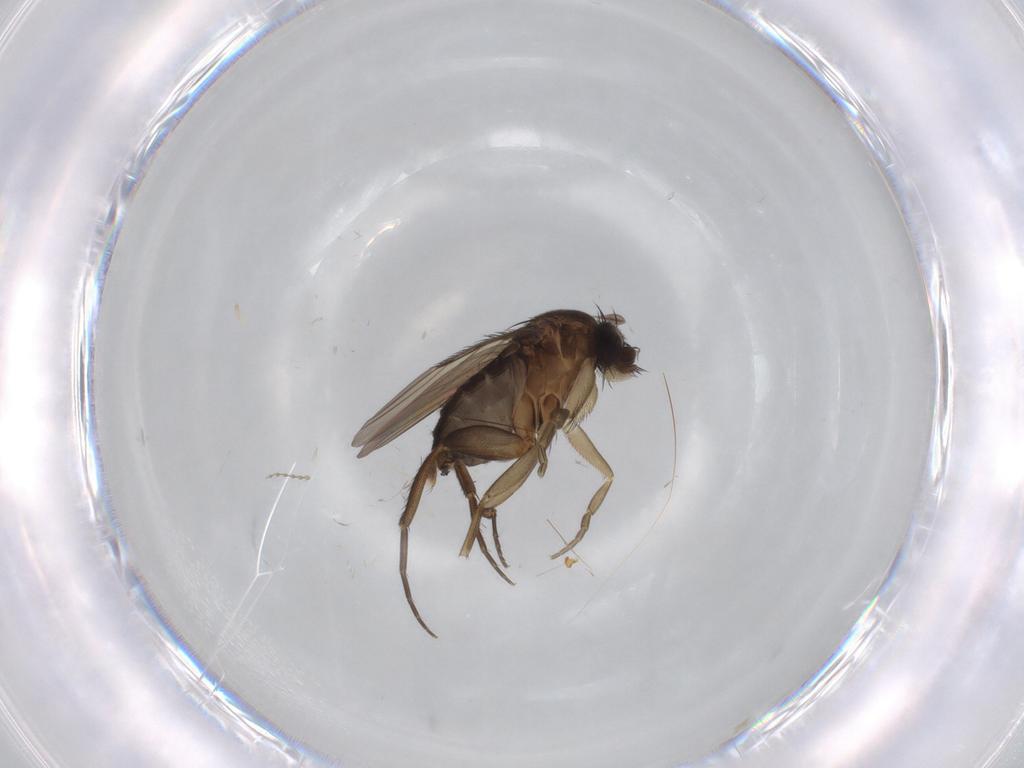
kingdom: Animalia
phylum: Arthropoda
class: Insecta
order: Diptera
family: Cecidomyiidae
